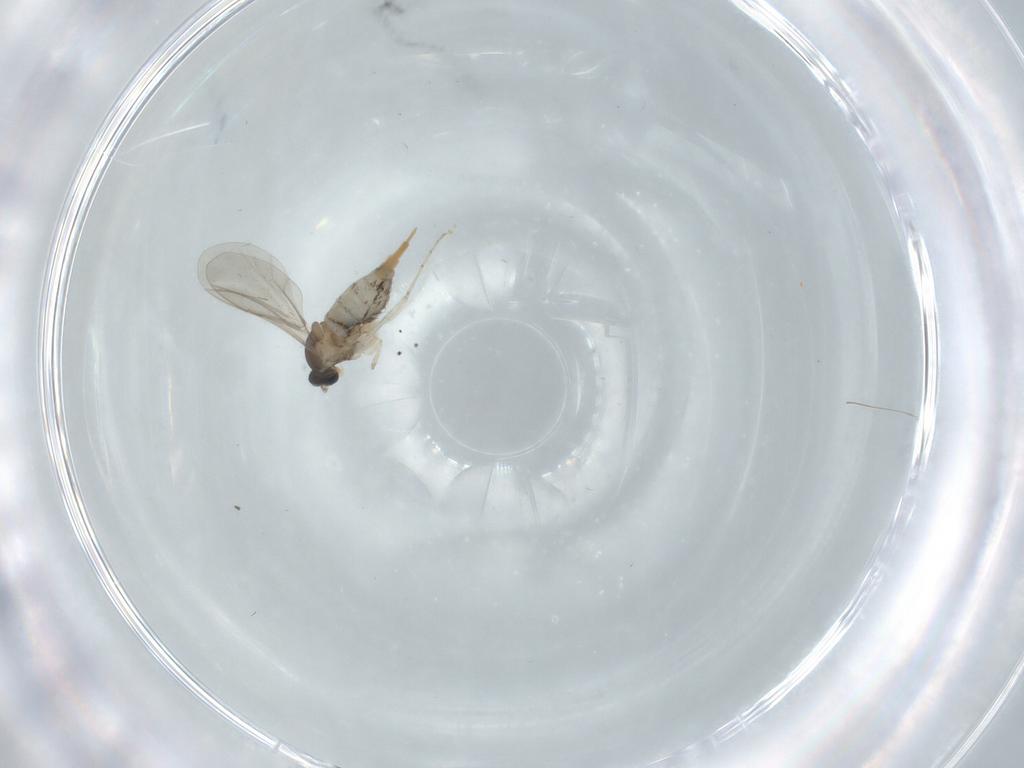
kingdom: Animalia
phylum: Arthropoda
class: Insecta
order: Diptera
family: Cecidomyiidae
